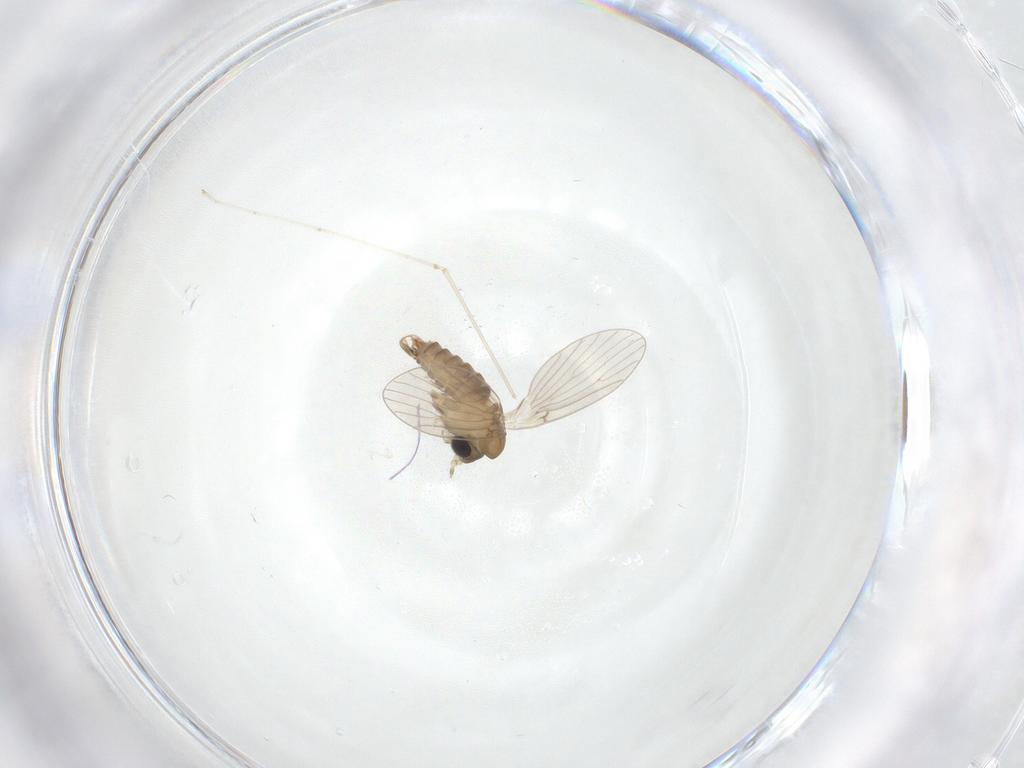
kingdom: Animalia
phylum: Arthropoda
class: Insecta
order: Diptera
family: Psychodidae
